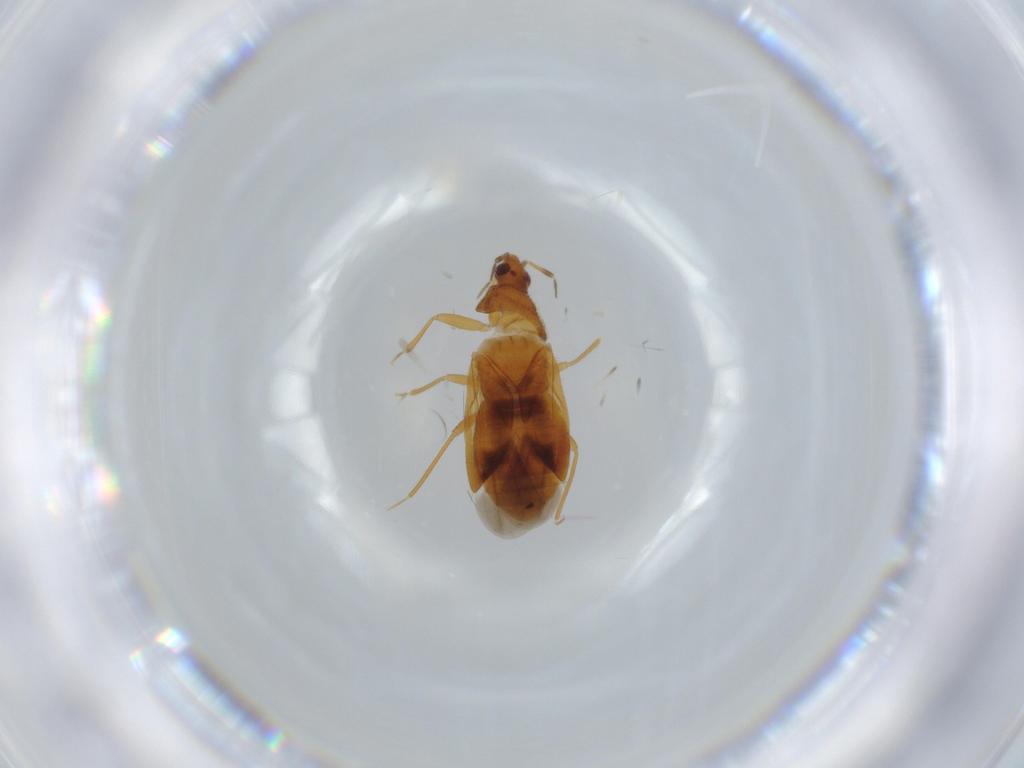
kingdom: Animalia
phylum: Arthropoda
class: Insecta
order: Hemiptera
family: Anthocoridae
